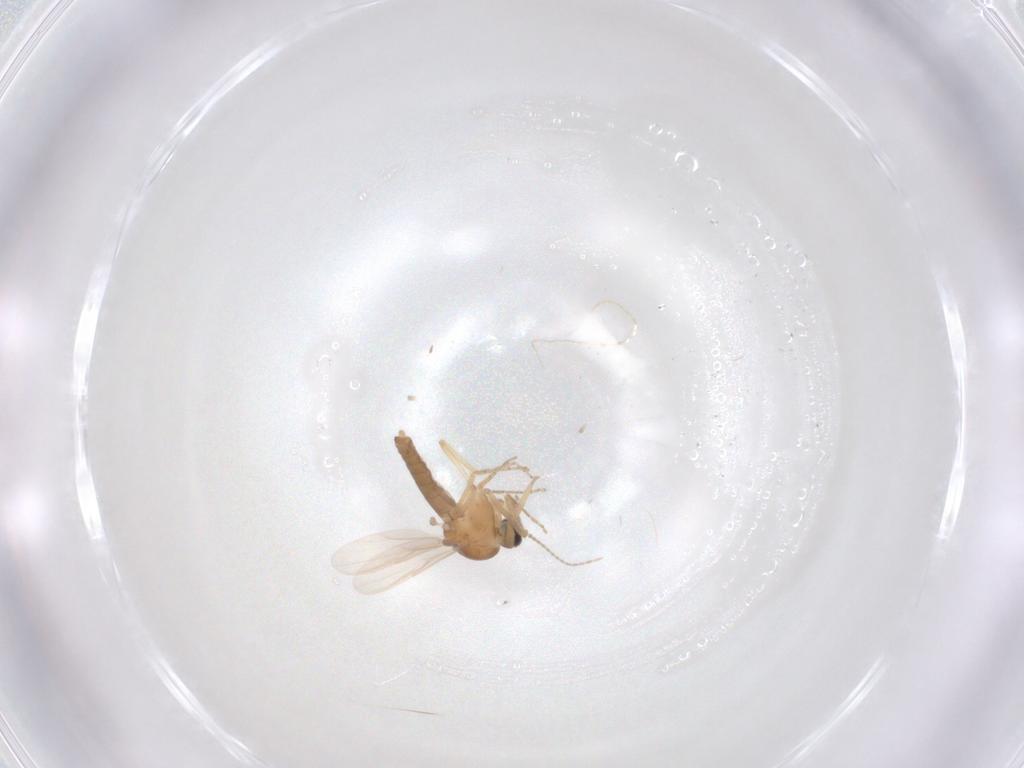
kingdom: Animalia
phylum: Arthropoda
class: Insecta
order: Diptera
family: Ceratopogonidae
